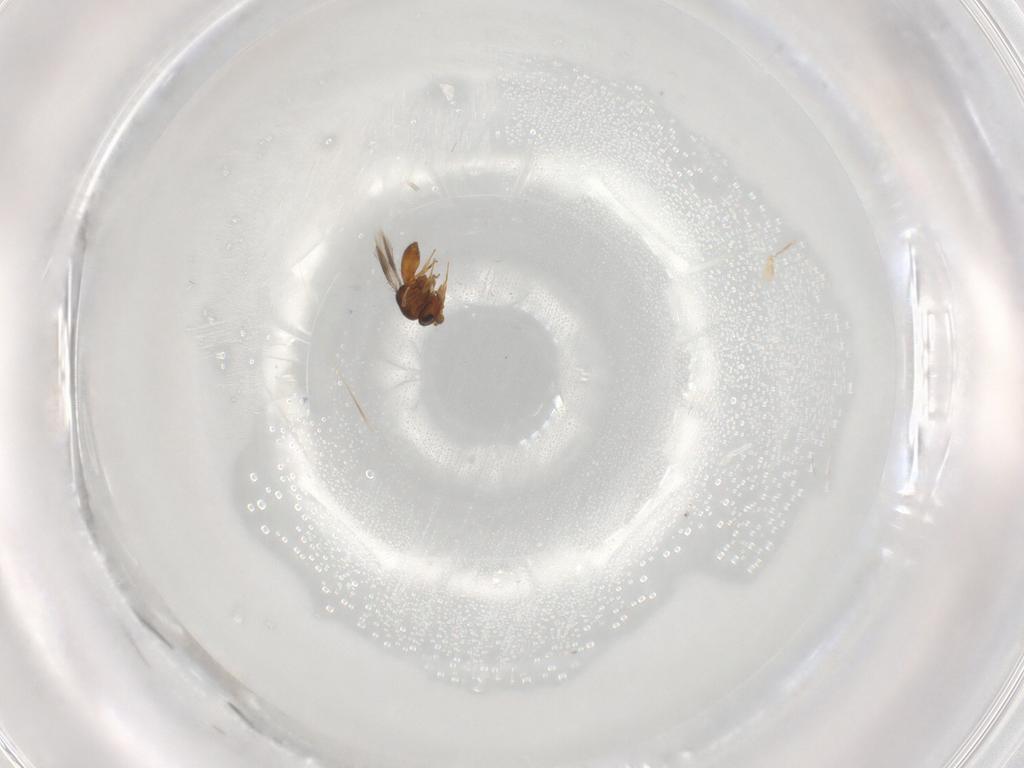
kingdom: Animalia
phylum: Arthropoda
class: Insecta
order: Hymenoptera
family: Scelionidae
